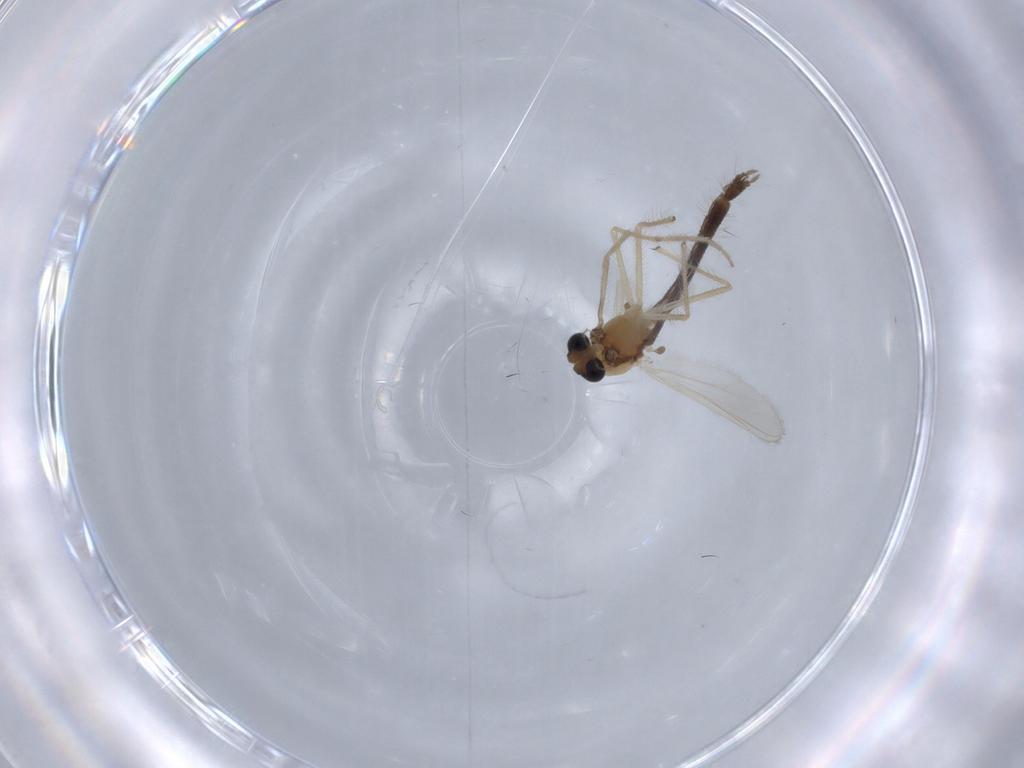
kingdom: Animalia
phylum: Arthropoda
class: Insecta
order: Diptera
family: Chironomidae
